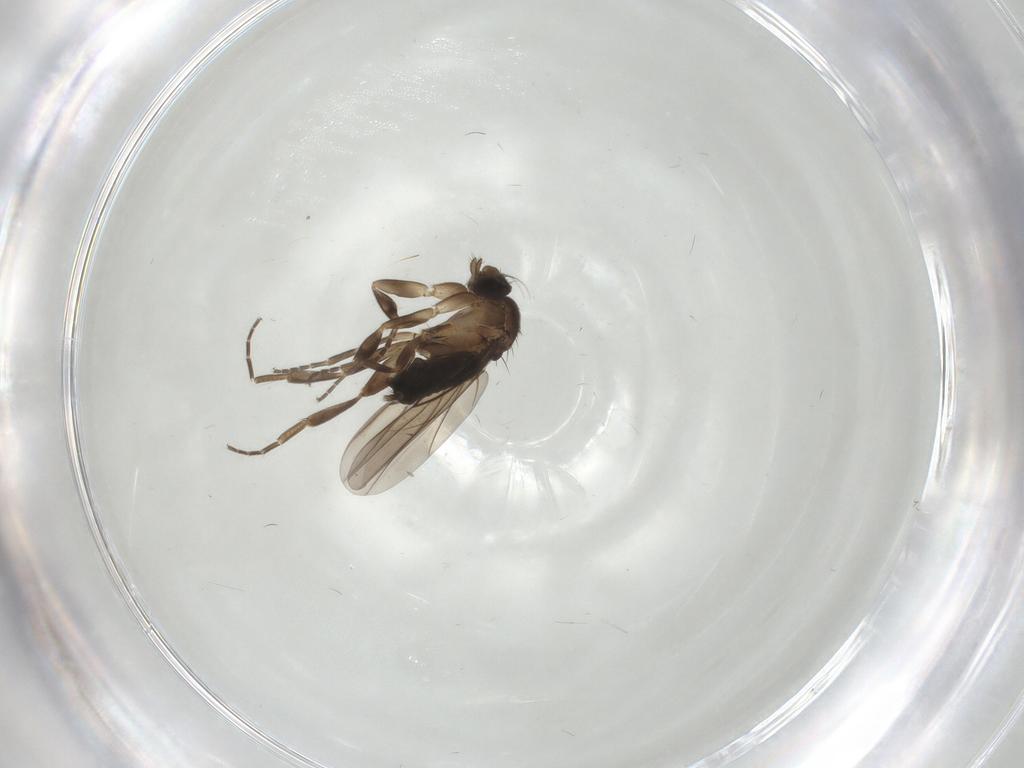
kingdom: Animalia
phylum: Arthropoda
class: Insecta
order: Diptera
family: Phoridae
